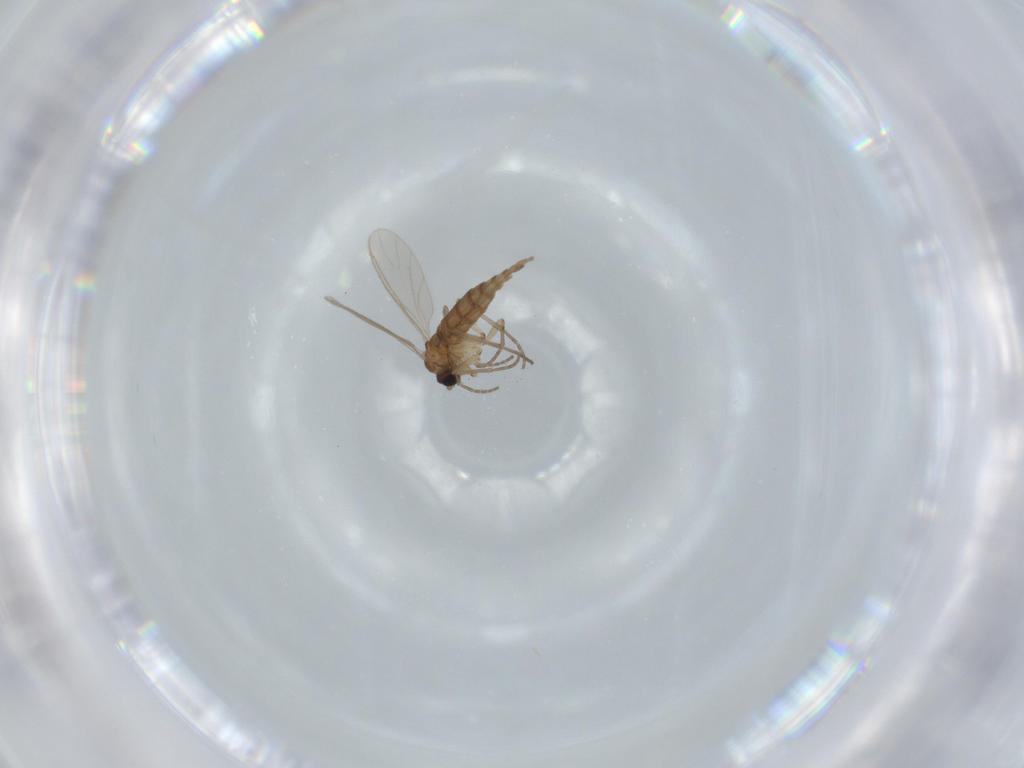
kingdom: Animalia
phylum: Arthropoda
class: Insecta
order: Diptera
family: Sciaridae
